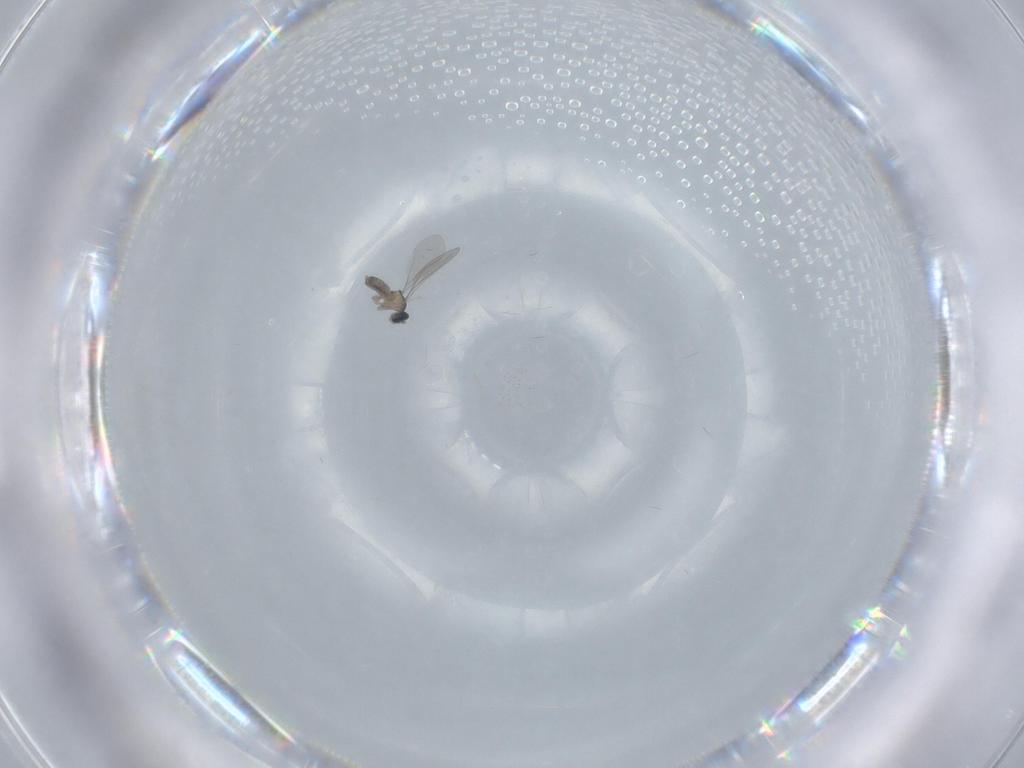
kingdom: Animalia
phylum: Arthropoda
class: Insecta
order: Diptera
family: Cecidomyiidae
